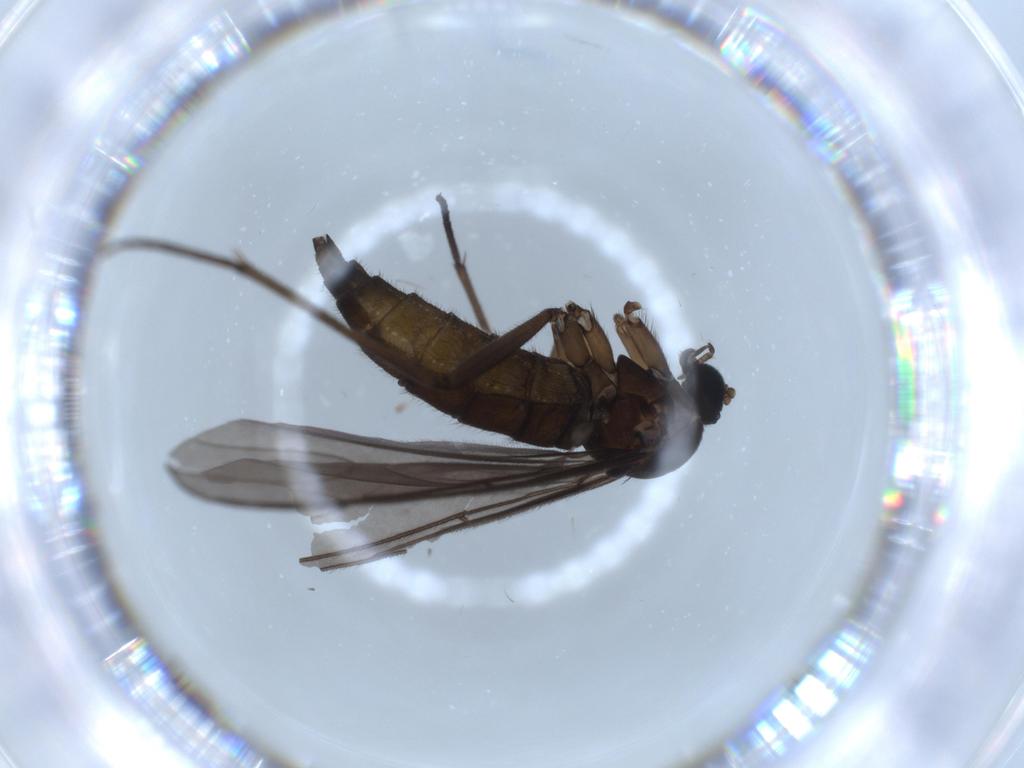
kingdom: Animalia
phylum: Arthropoda
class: Insecta
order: Diptera
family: Sciaridae
